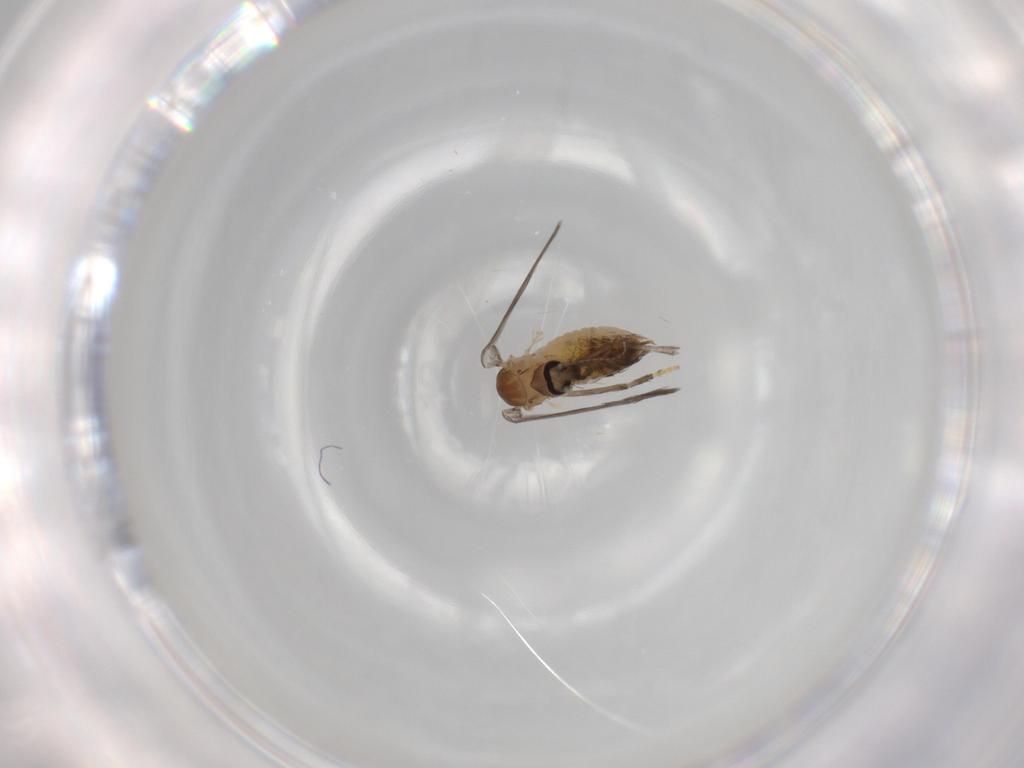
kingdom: Animalia
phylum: Arthropoda
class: Insecta
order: Diptera
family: Psychodidae
